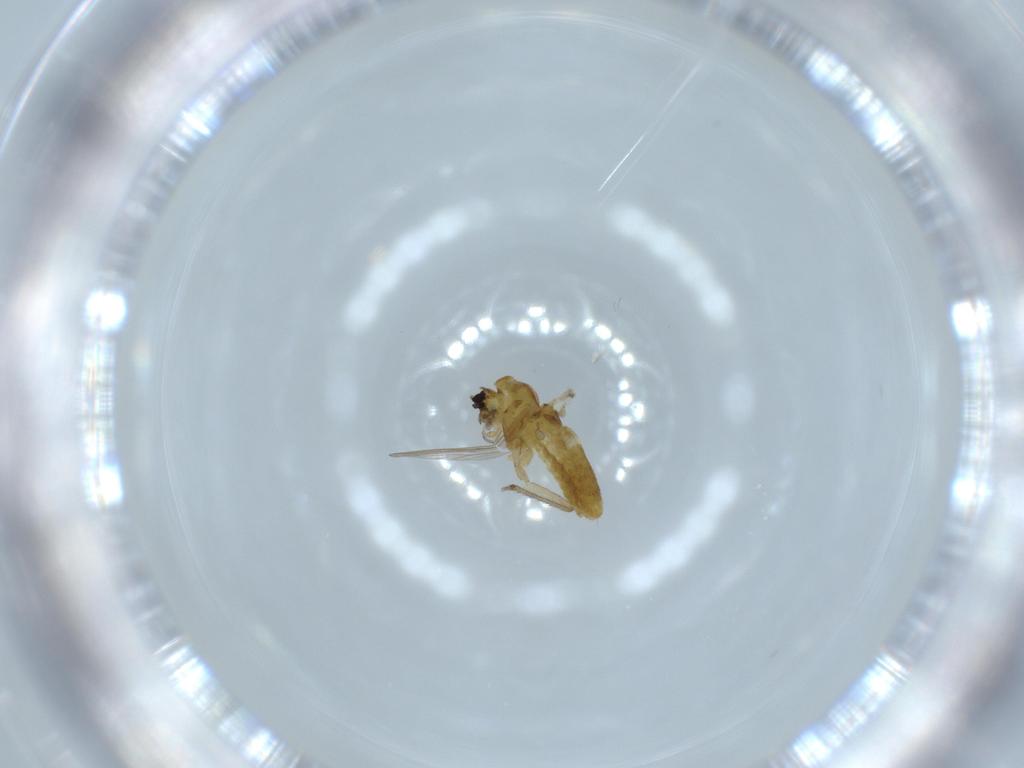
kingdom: Animalia
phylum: Arthropoda
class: Insecta
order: Diptera
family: Chironomidae
